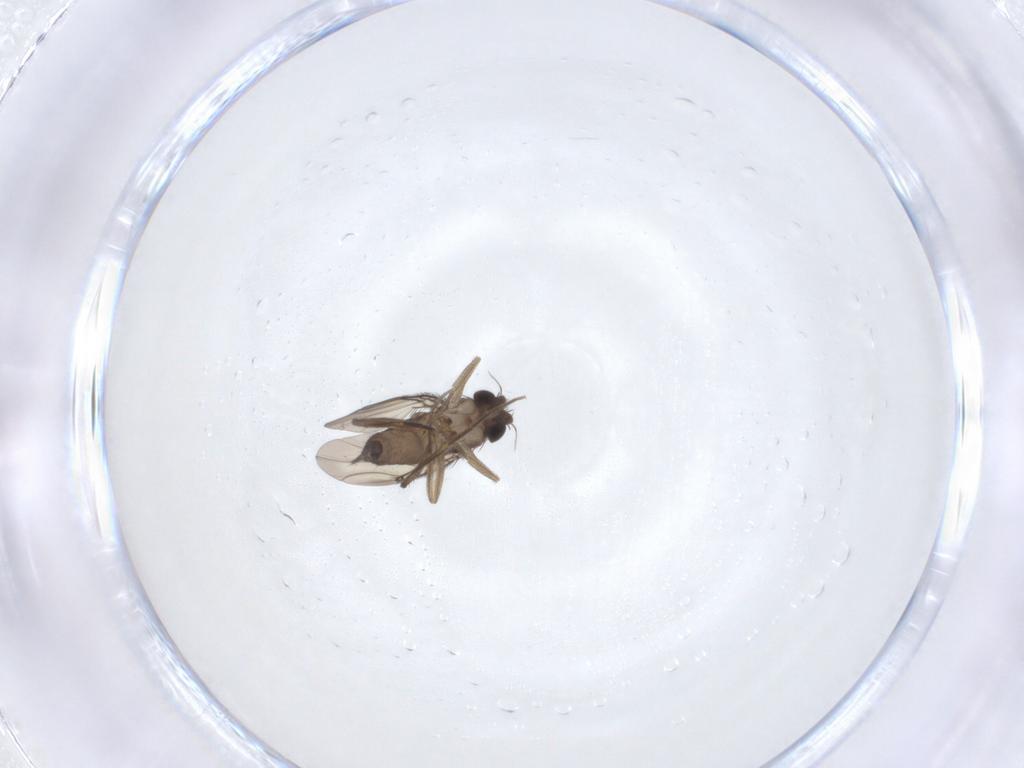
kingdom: Animalia
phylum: Arthropoda
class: Insecta
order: Diptera
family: Phoridae
